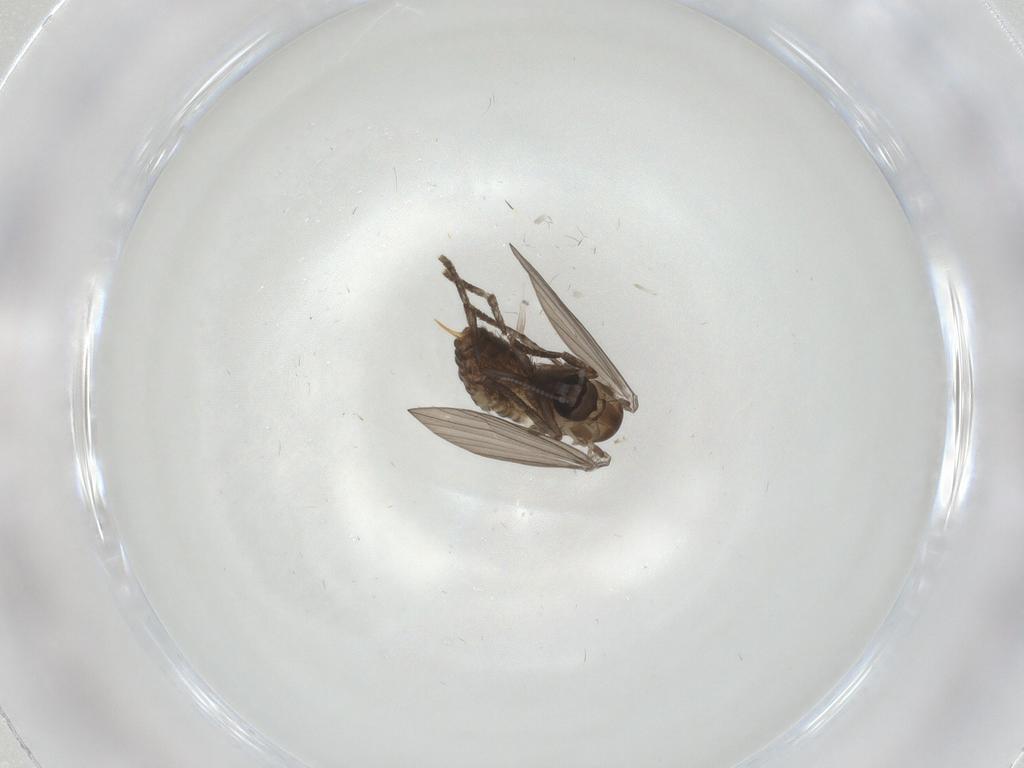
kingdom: Animalia
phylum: Arthropoda
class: Insecta
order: Diptera
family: Psychodidae
